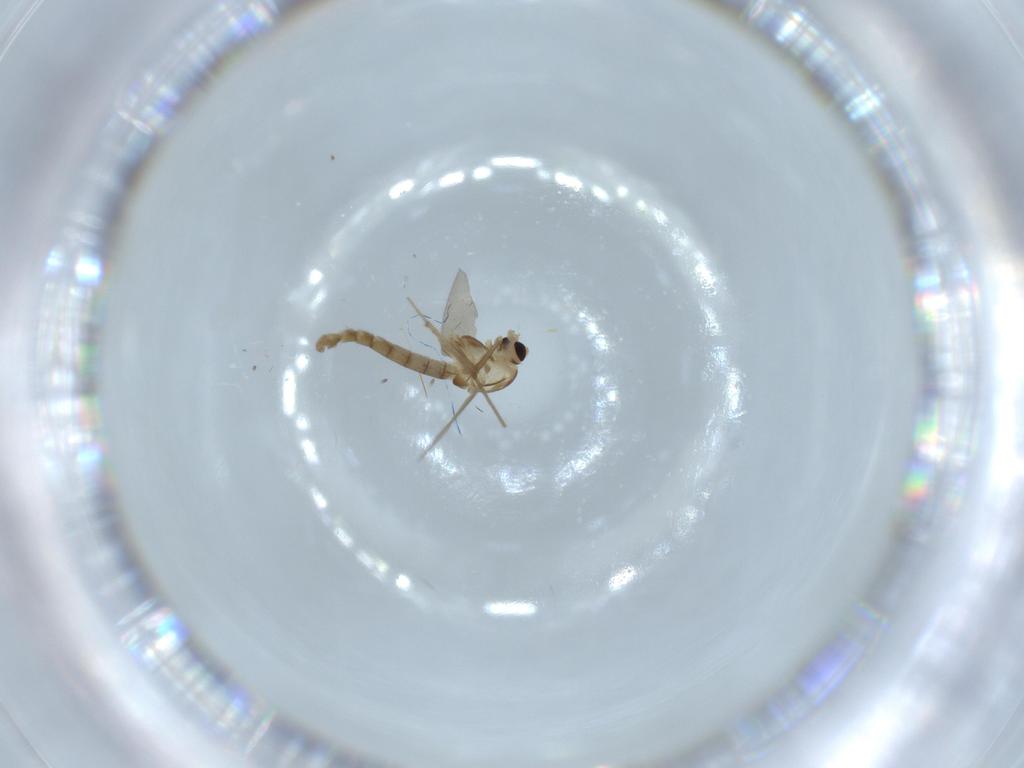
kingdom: Animalia
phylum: Arthropoda
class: Insecta
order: Diptera
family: Chironomidae
